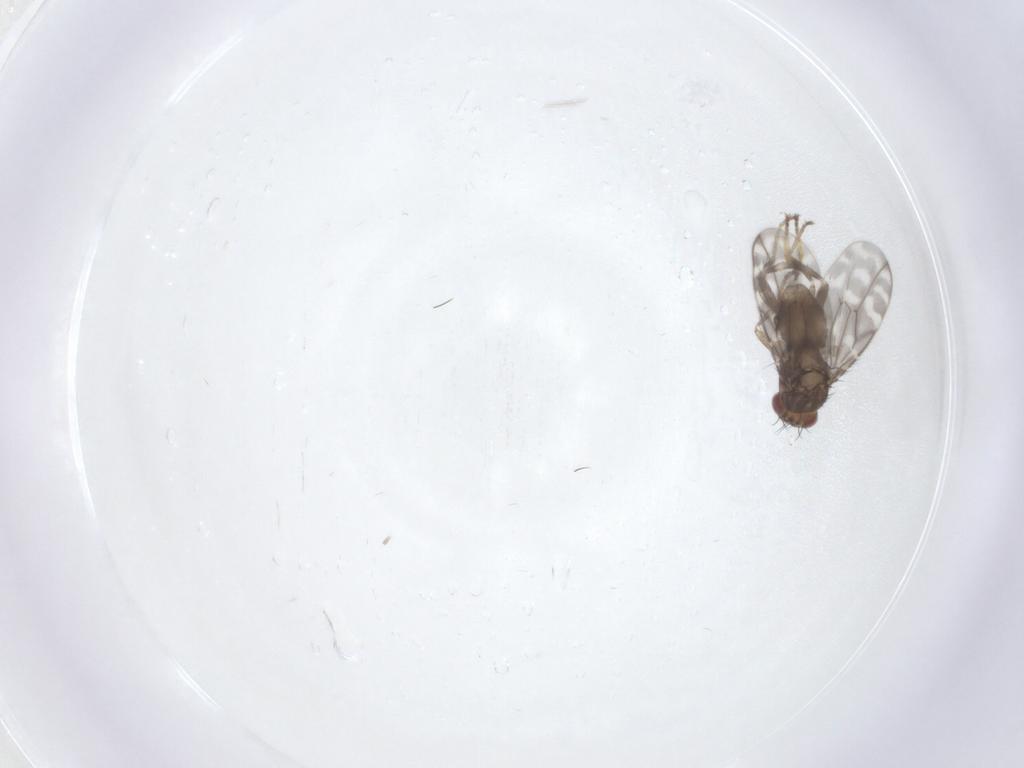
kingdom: Animalia
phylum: Arthropoda
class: Insecta
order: Diptera
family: Sphaeroceridae
